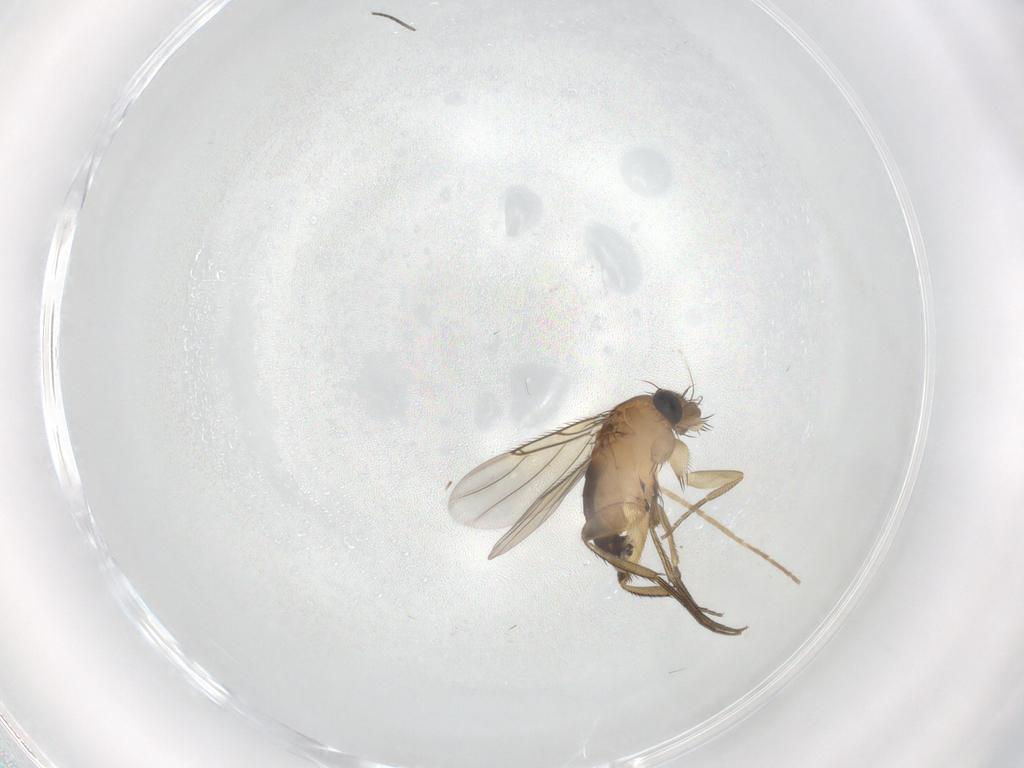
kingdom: Animalia
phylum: Arthropoda
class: Insecta
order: Diptera
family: Phoridae
